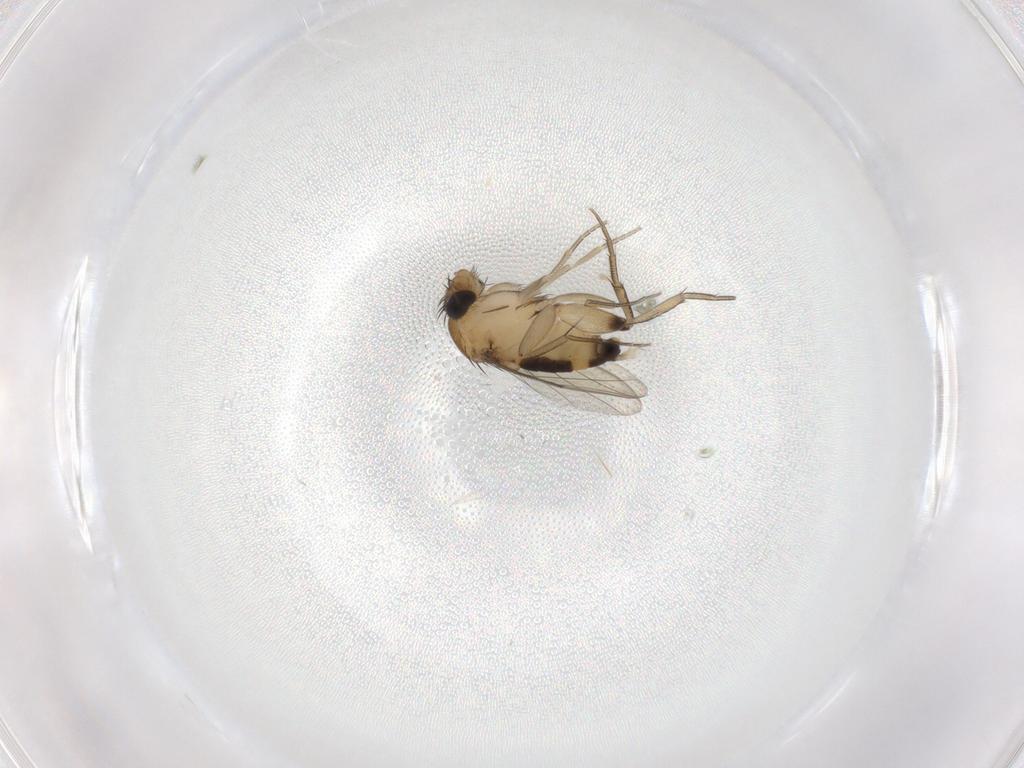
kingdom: Animalia
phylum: Arthropoda
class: Insecta
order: Diptera
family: Phoridae
